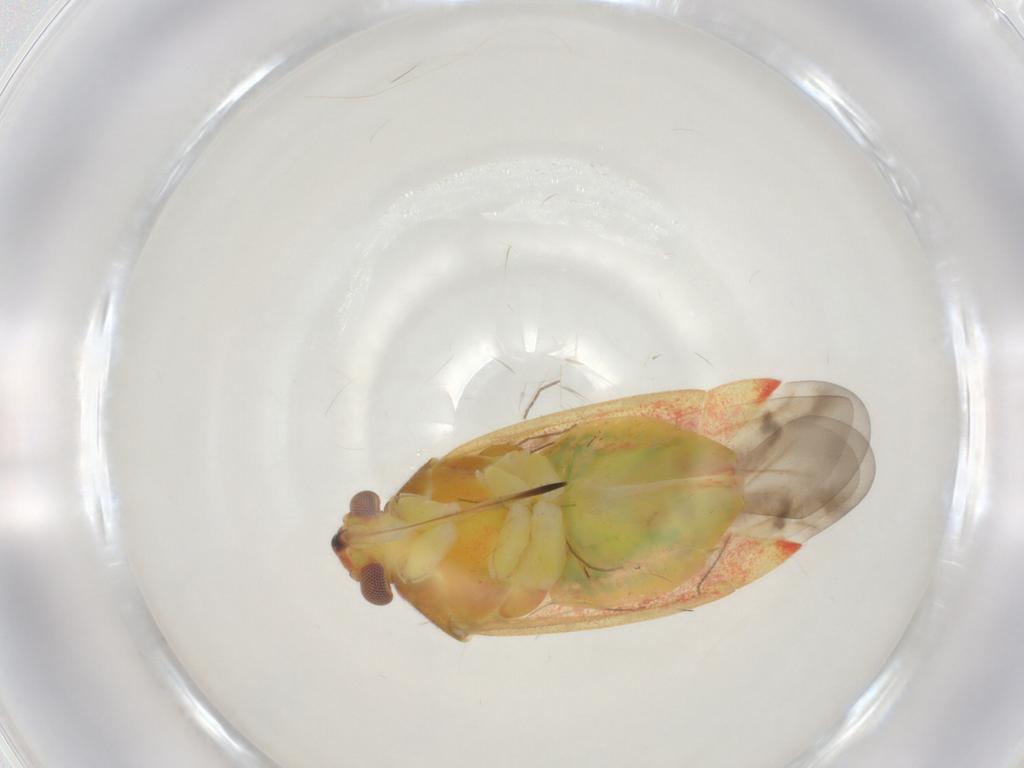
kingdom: Animalia
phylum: Arthropoda
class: Insecta
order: Hemiptera
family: Miridae
